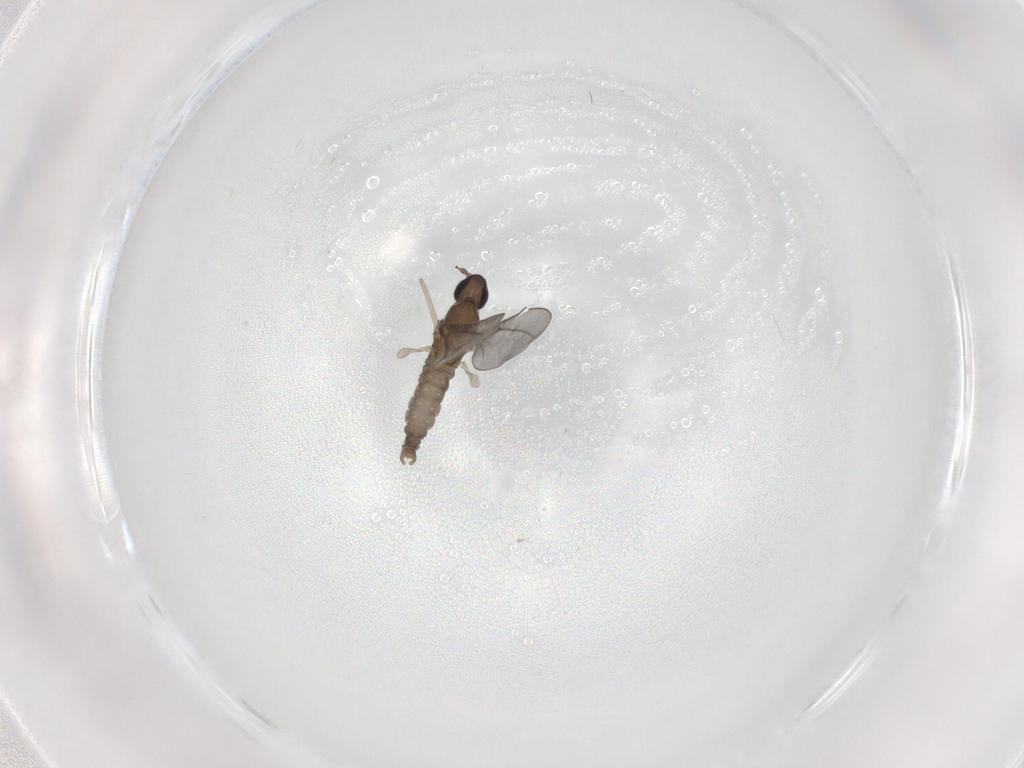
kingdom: Animalia
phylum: Arthropoda
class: Insecta
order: Diptera
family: Cecidomyiidae
